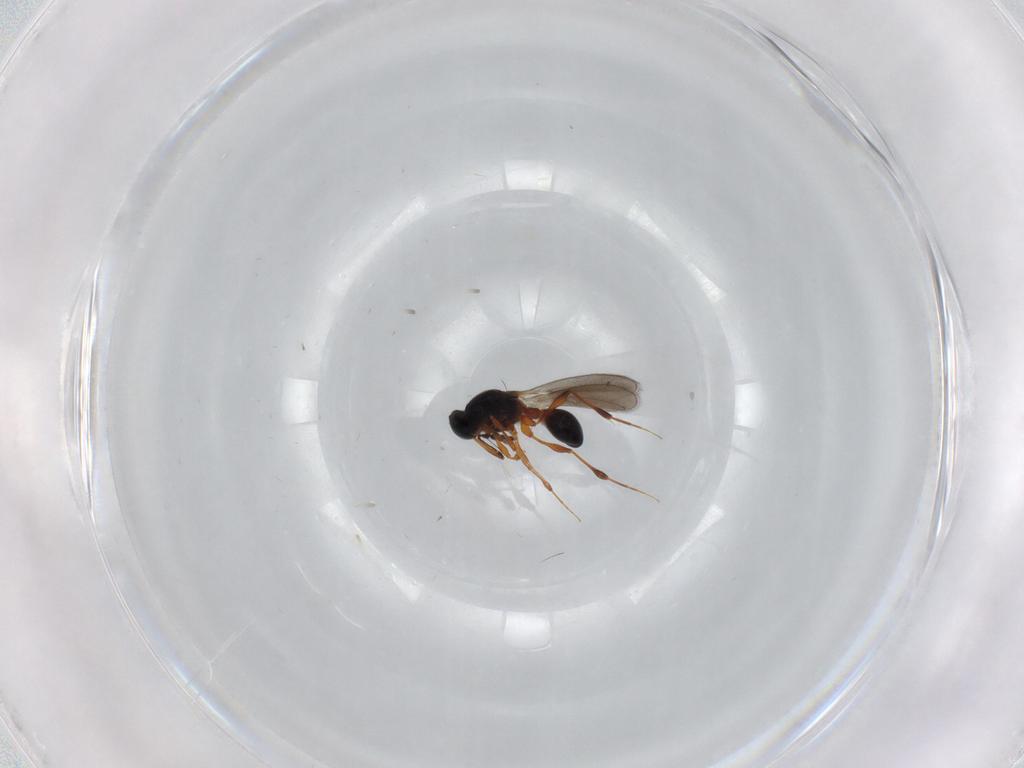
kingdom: Animalia
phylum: Arthropoda
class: Insecta
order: Hymenoptera
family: Platygastridae
